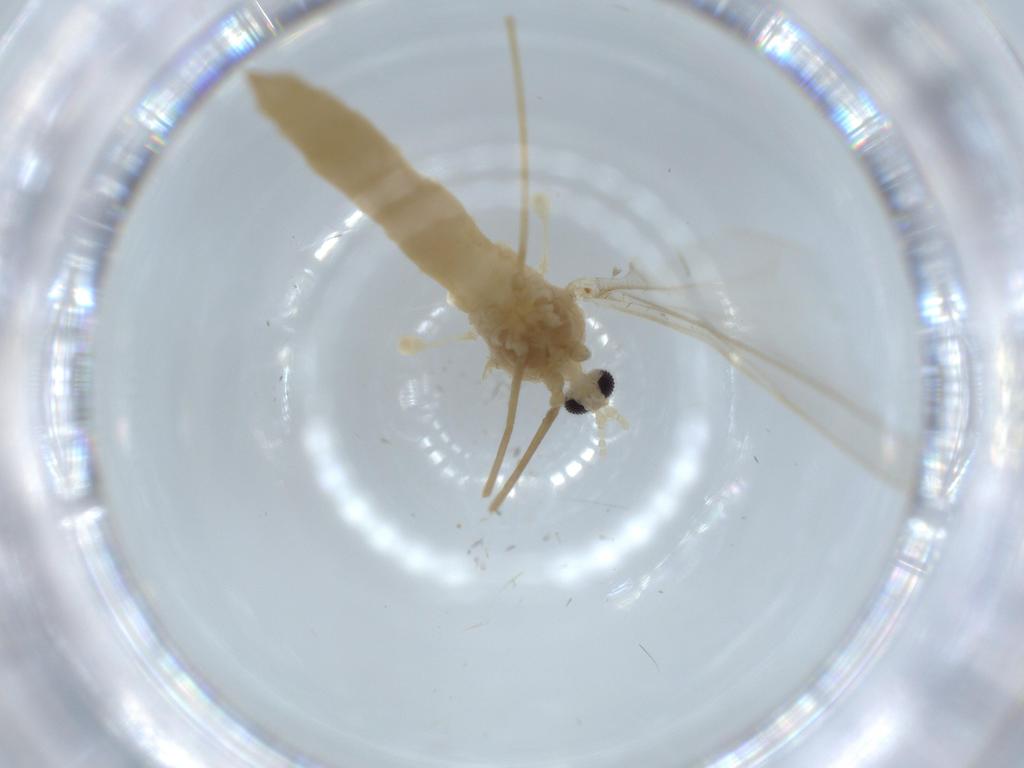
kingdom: Animalia
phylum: Arthropoda
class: Insecta
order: Diptera
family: Cecidomyiidae
